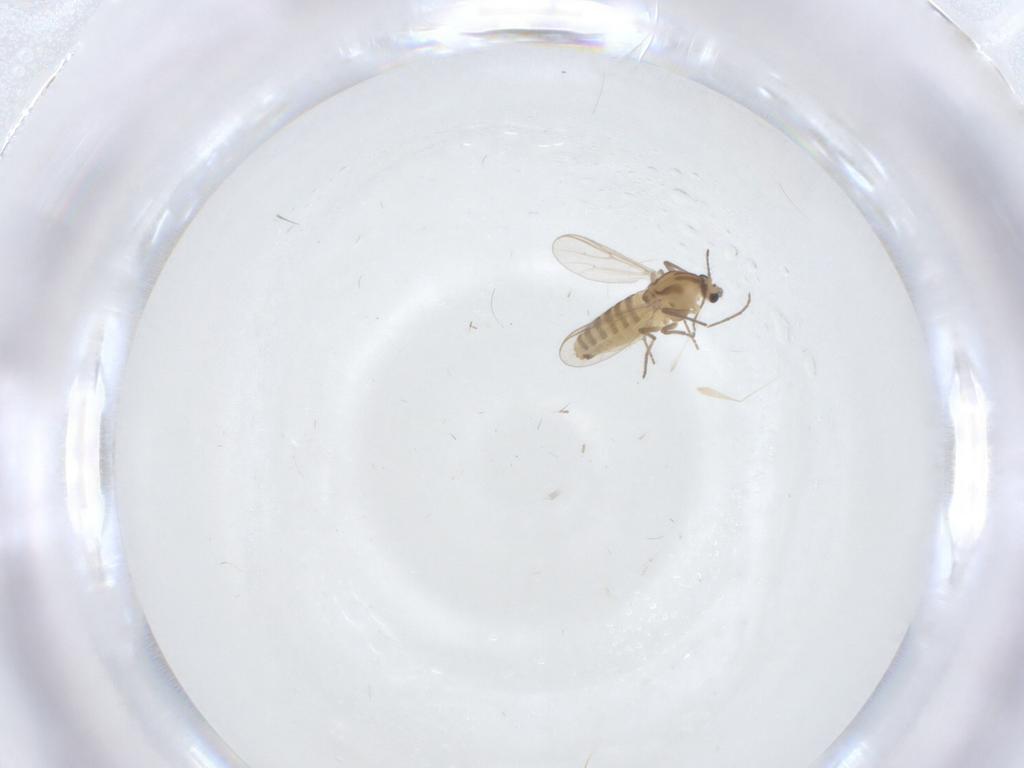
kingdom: Animalia
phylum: Arthropoda
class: Insecta
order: Diptera
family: Chironomidae
